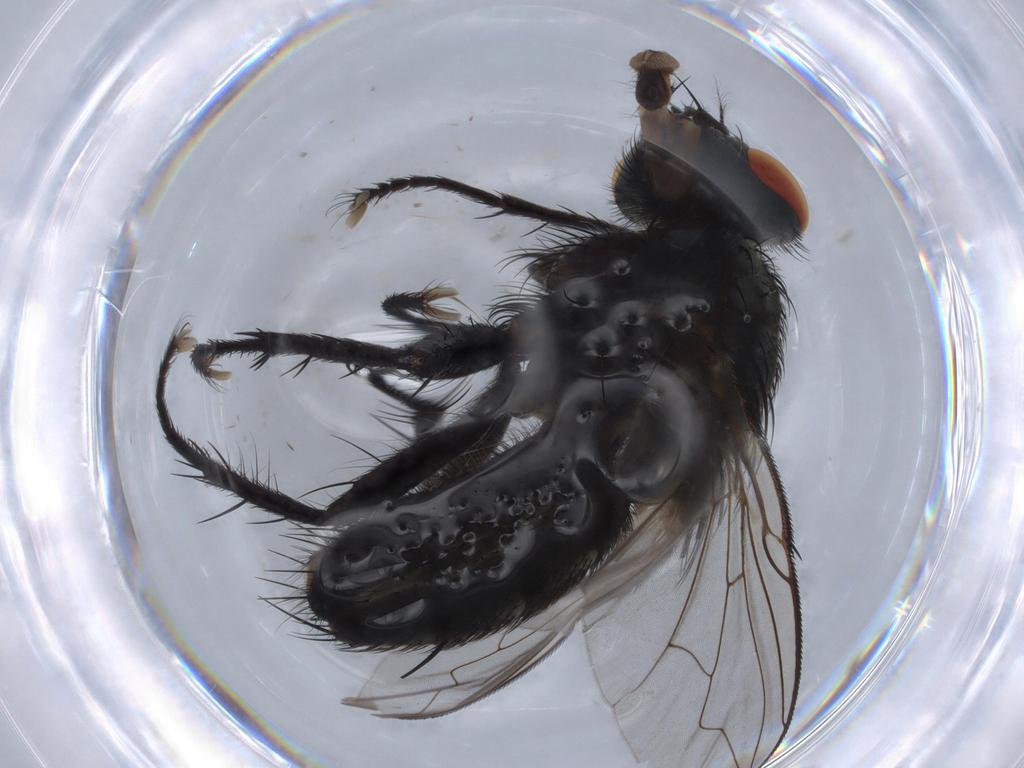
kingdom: Animalia
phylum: Arthropoda
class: Insecta
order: Diptera
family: Sarcophagidae
